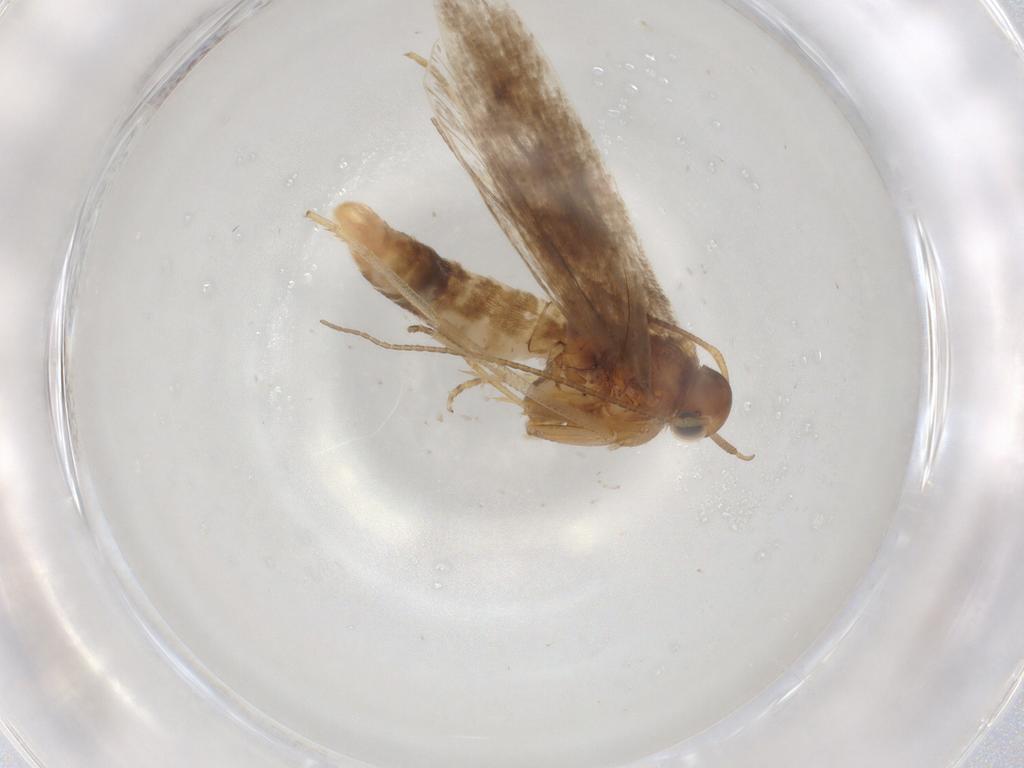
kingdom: Animalia
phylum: Arthropoda
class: Insecta
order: Lepidoptera
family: Gelechiidae
